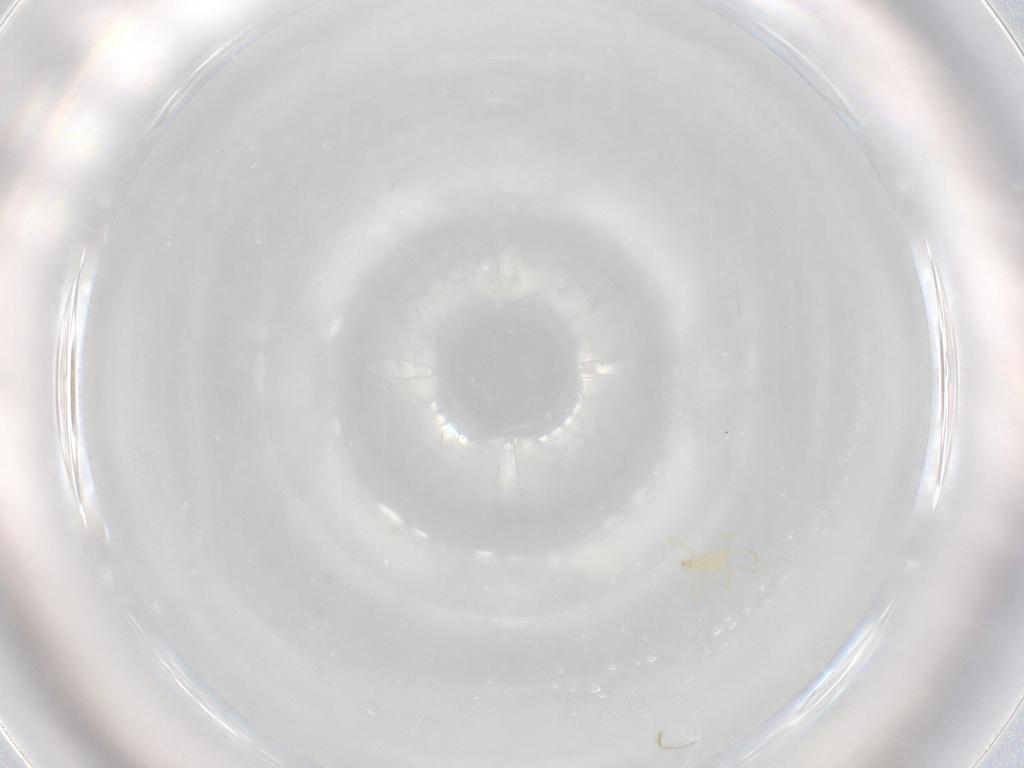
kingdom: Animalia
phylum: Arthropoda
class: Arachnida
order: Trombidiformes
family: Erythraeidae
